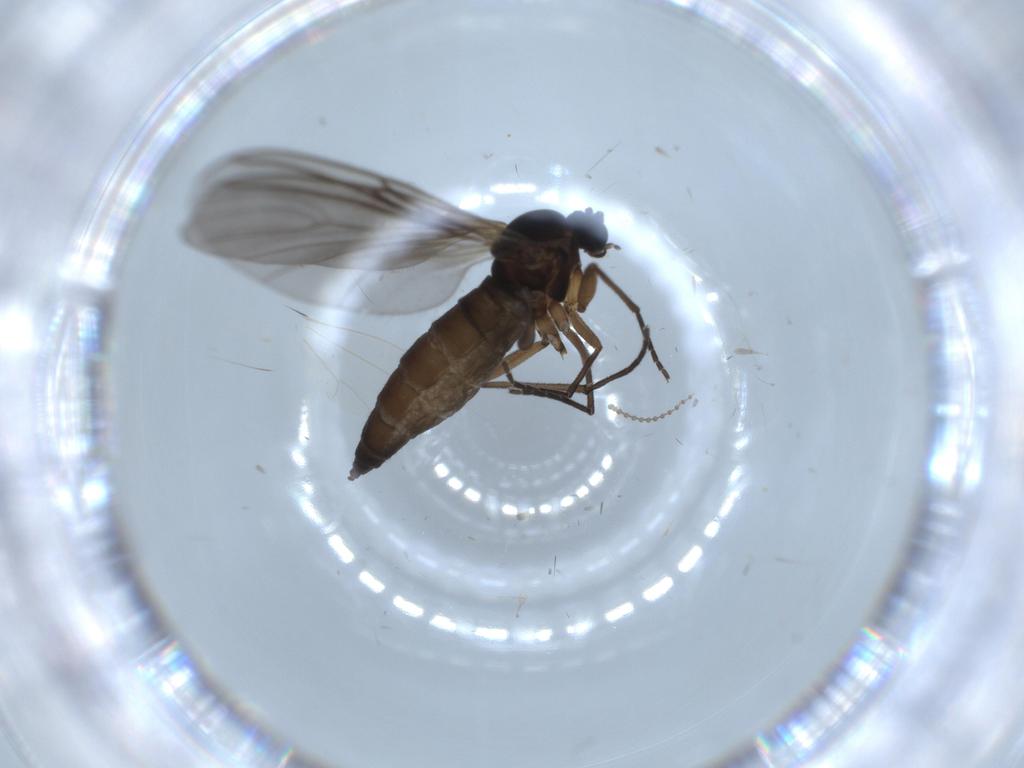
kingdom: Animalia
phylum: Arthropoda
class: Insecta
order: Diptera
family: Sciaridae
